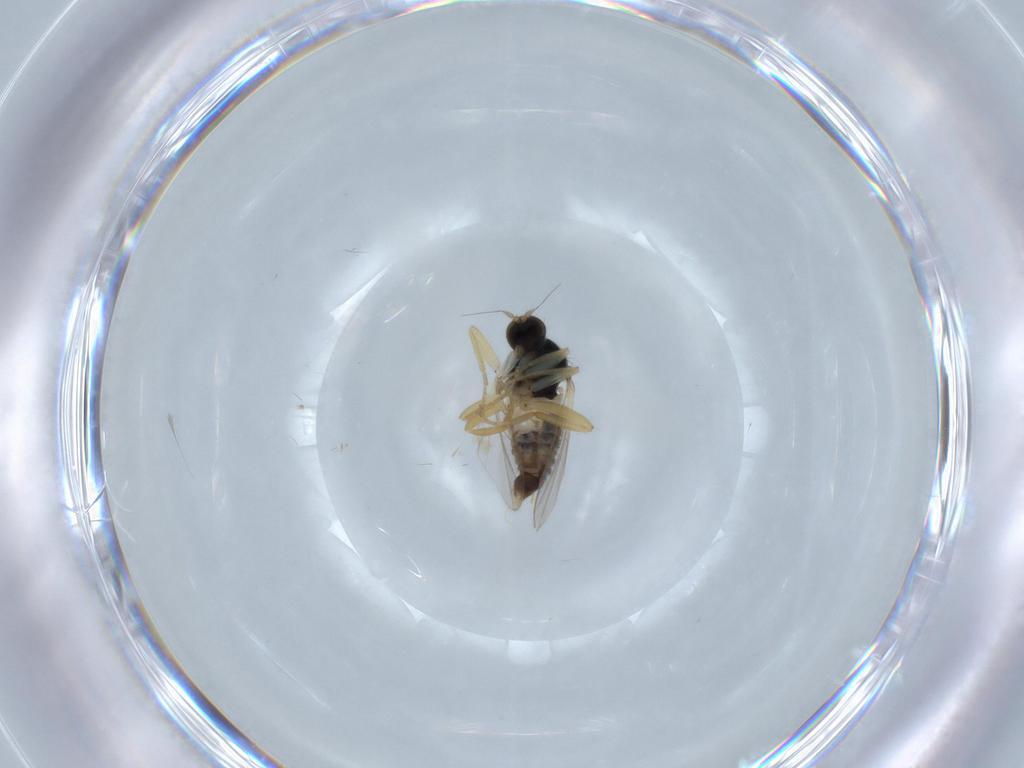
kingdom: Animalia
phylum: Arthropoda
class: Insecta
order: Diptera
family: Hybotidae
